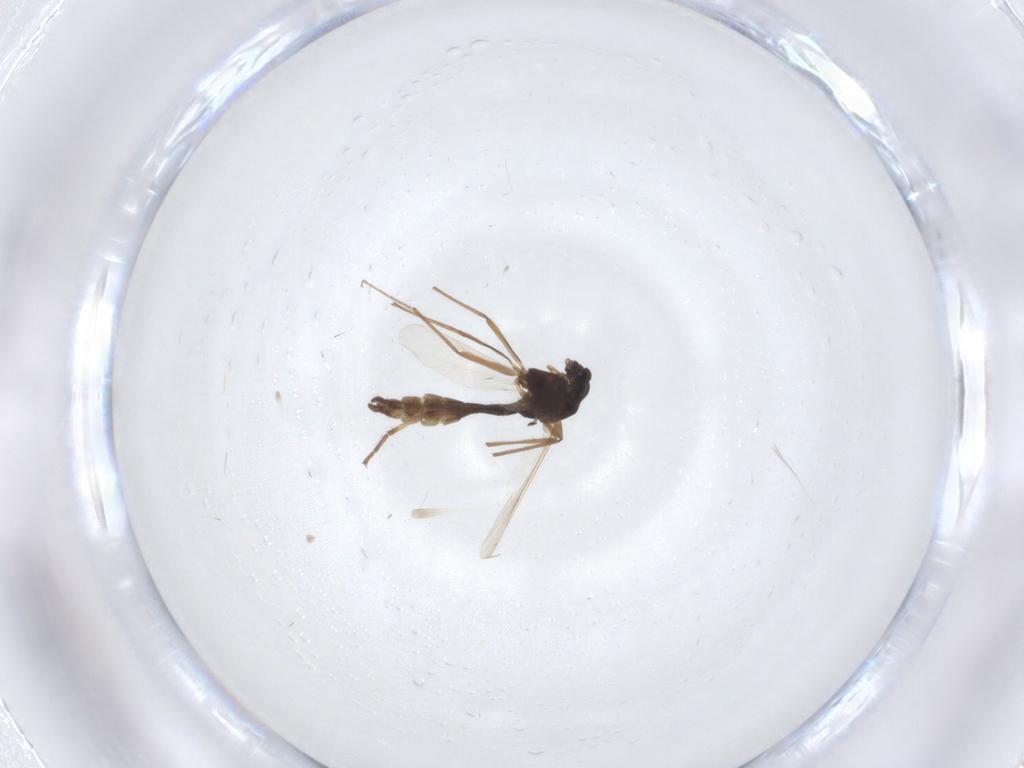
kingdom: Animalia
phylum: Arthropoda
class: Insecta
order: Diptera
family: Chironomidae
